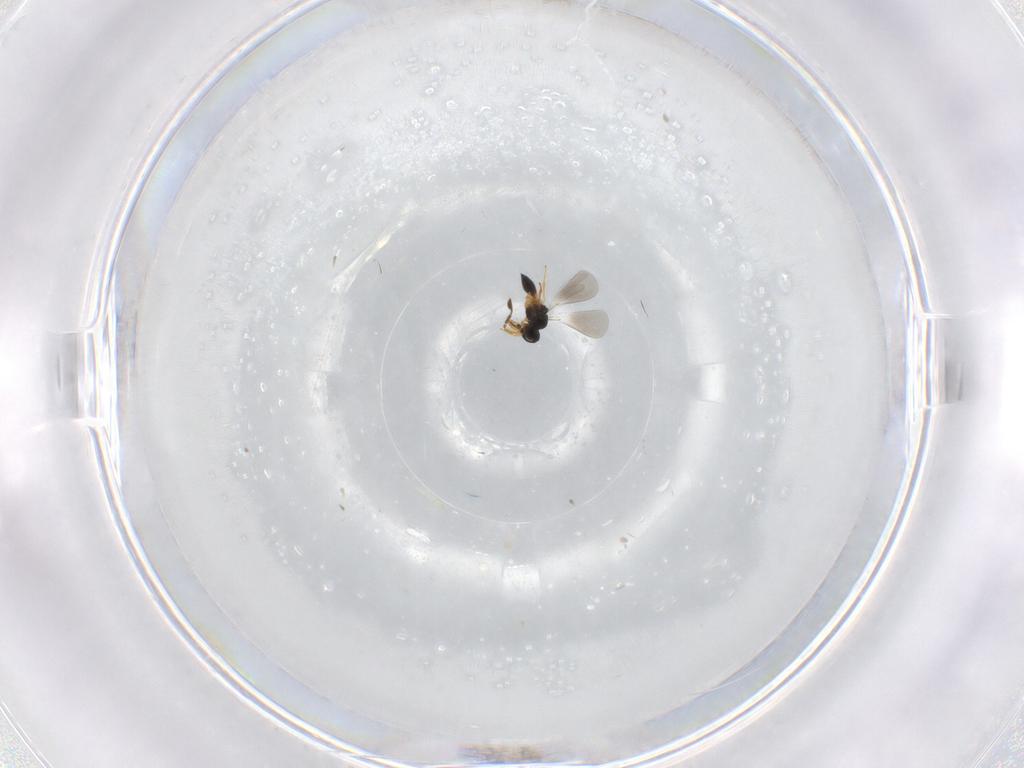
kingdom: Animalia
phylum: Arthropoda
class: Insecta
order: Hymenoptera
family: Platygastridae
